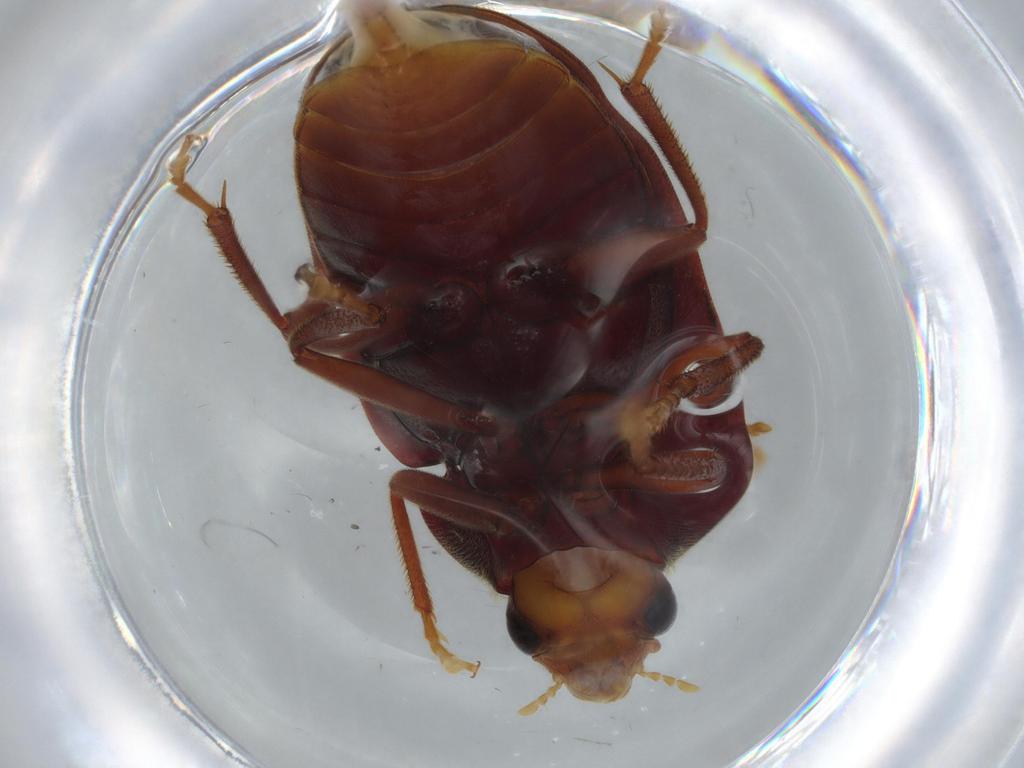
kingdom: Animalia
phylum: Arthropoda
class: Insecta
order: Coleoptera
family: Ptilodactylidae
